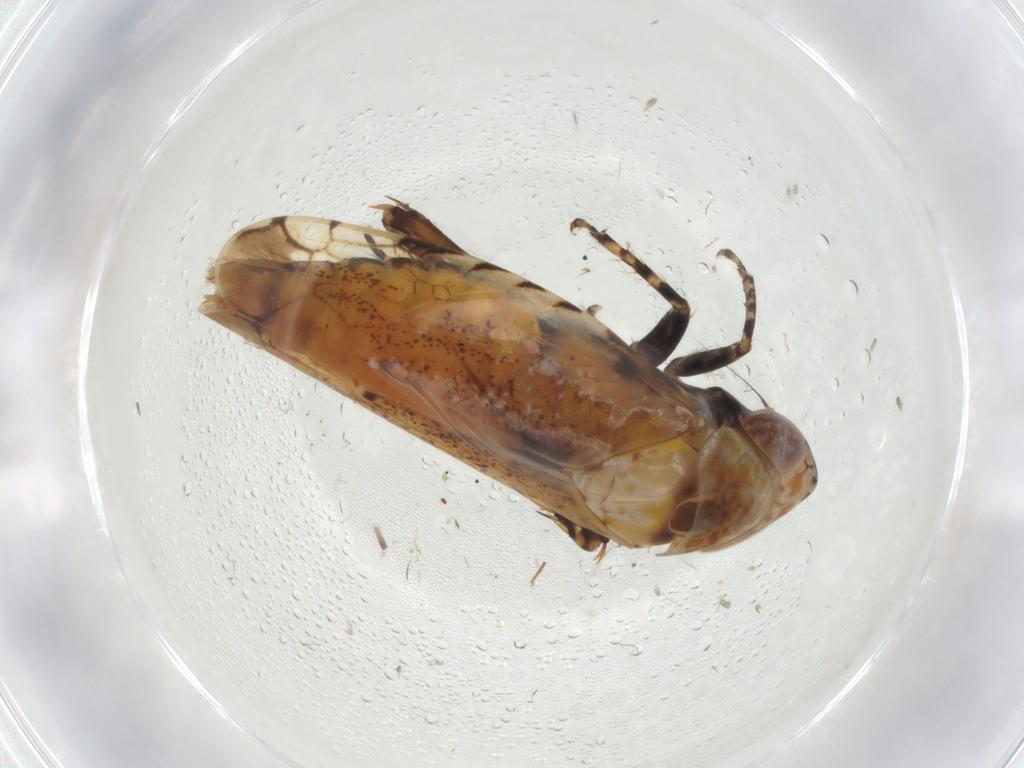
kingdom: Animalia
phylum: Arthropoda
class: Insecta
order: Hemiptera
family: Cicadellidae
